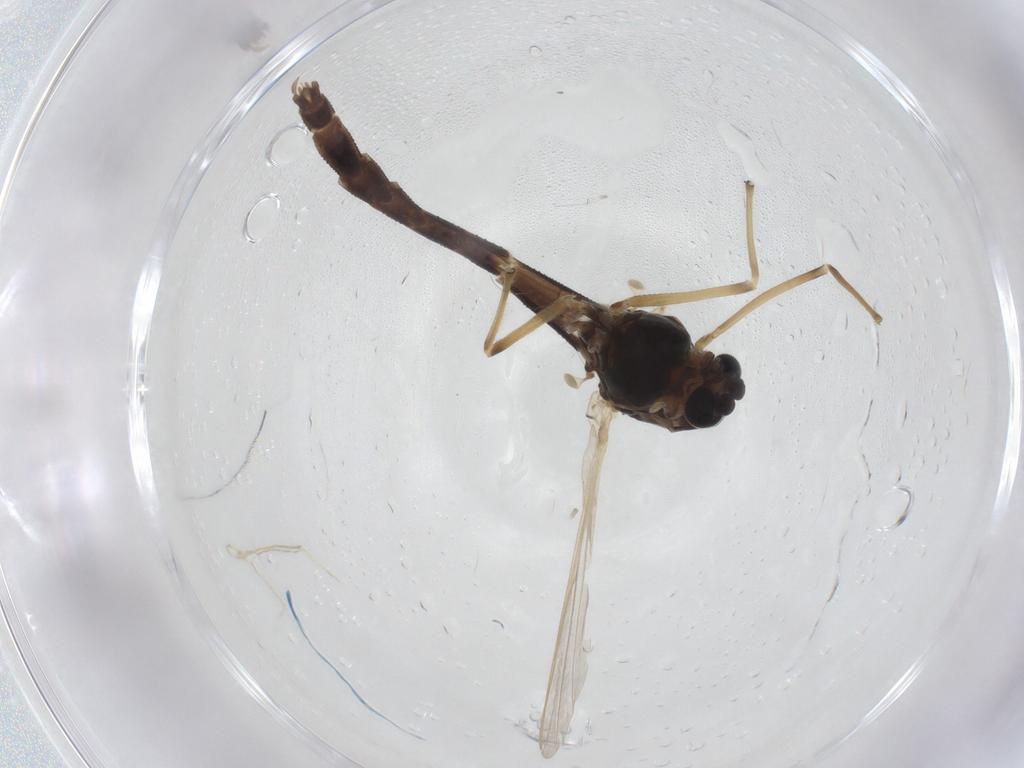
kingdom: Animalia
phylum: Arthropoda
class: Insecta
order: Diptera
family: Chironomidae
